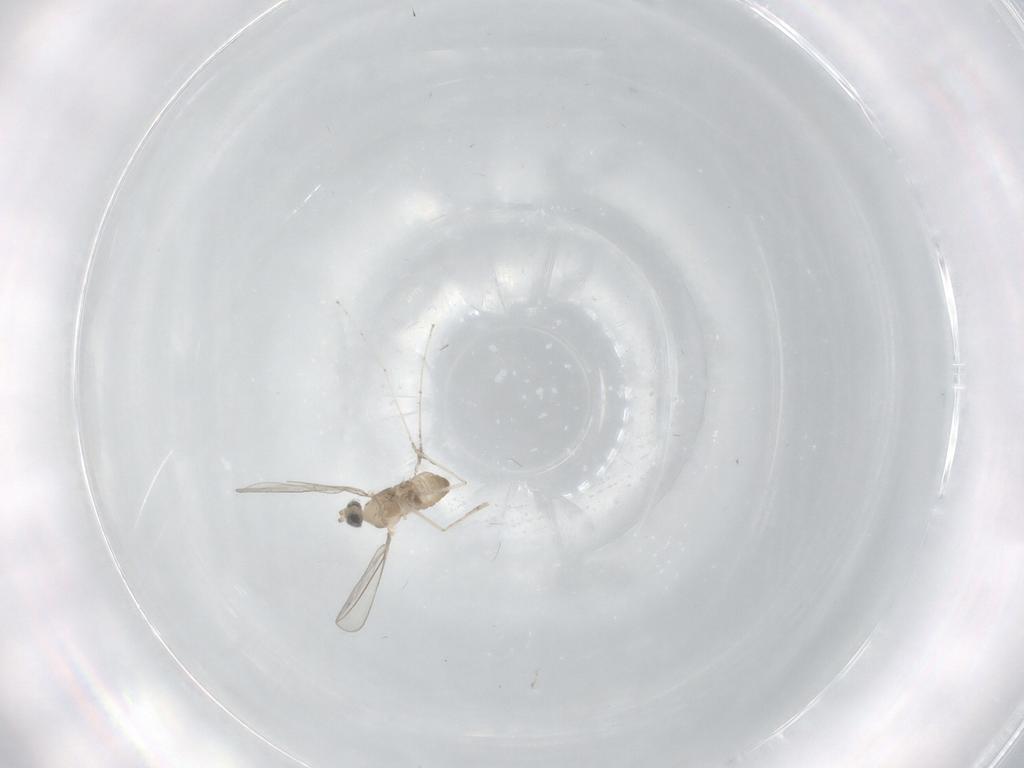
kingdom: Animalia
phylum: Arthropoda
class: Insecta
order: Diptera
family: Cecidomyiidae
